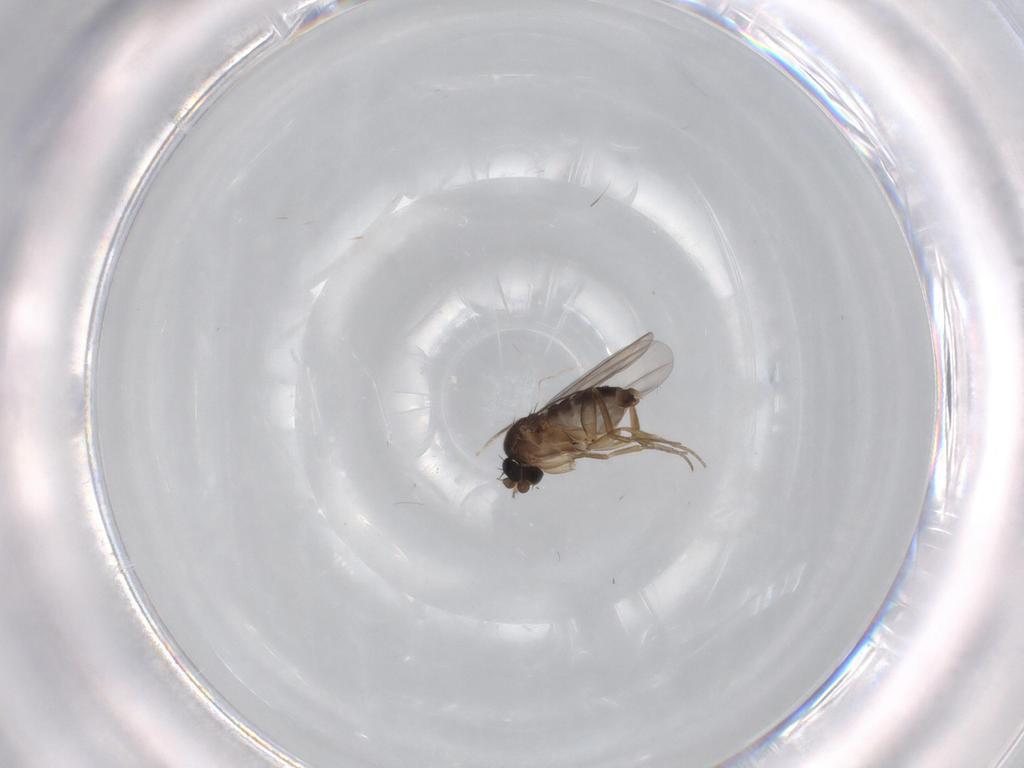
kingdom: Animalia
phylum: Arthropoda
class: Insecta
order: Diptera
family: Phoridae
